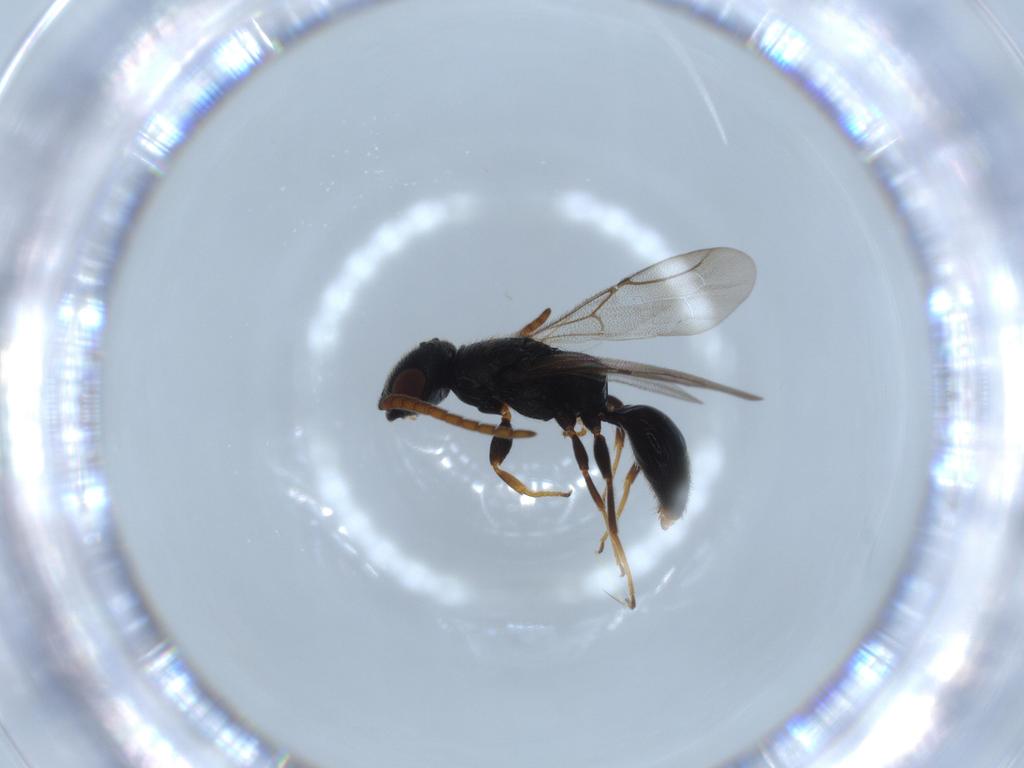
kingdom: Animalia
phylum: Arthropoda
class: Insecta
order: Hymenoptera
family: Bethylidae
